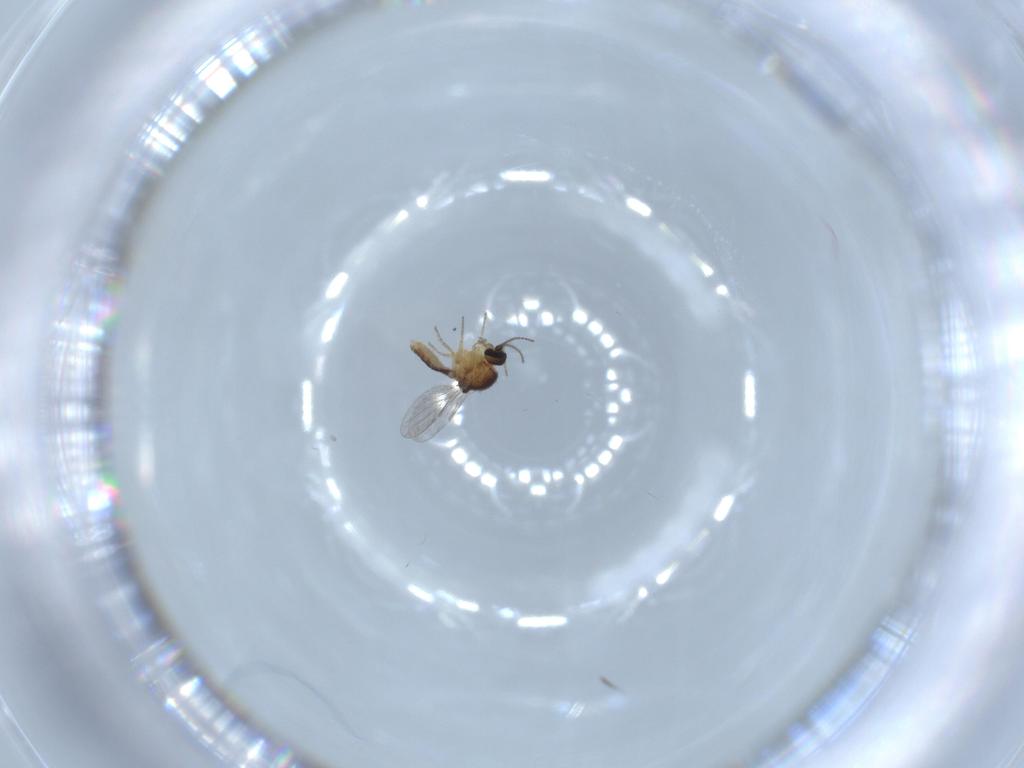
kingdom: Animalia
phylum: Arthropoda
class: Insecta
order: Diptera
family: Ceratopogonidae
